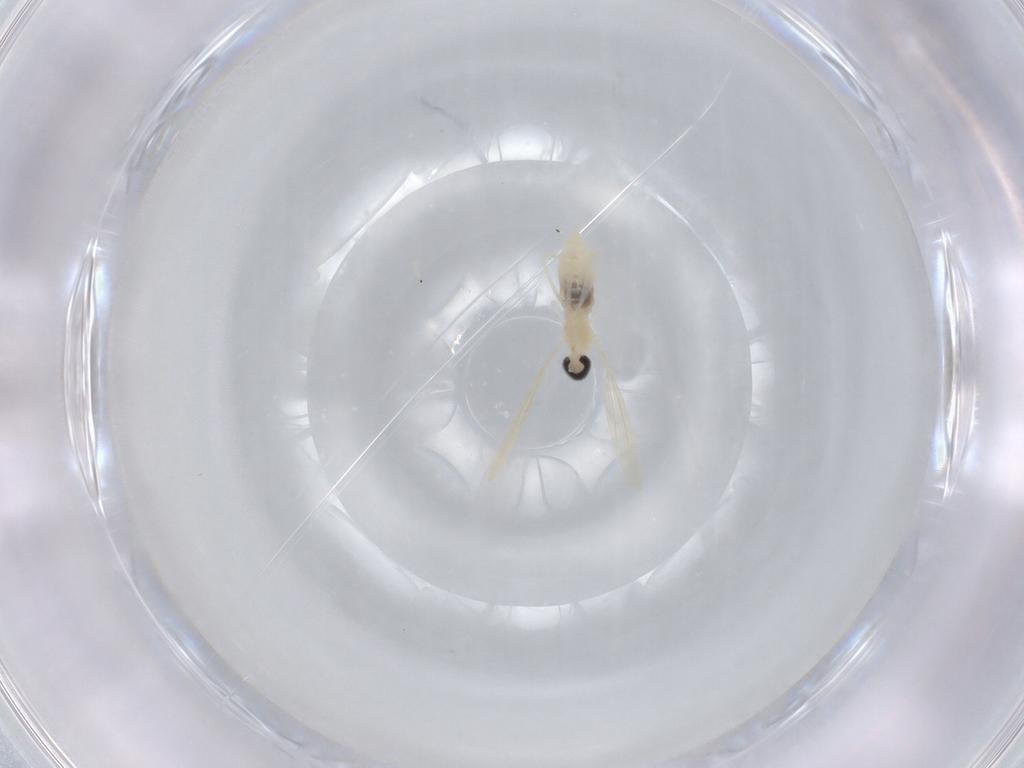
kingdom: Animalia
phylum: Arthropoda
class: Insecta
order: Diptera
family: Cecidomyiidae
